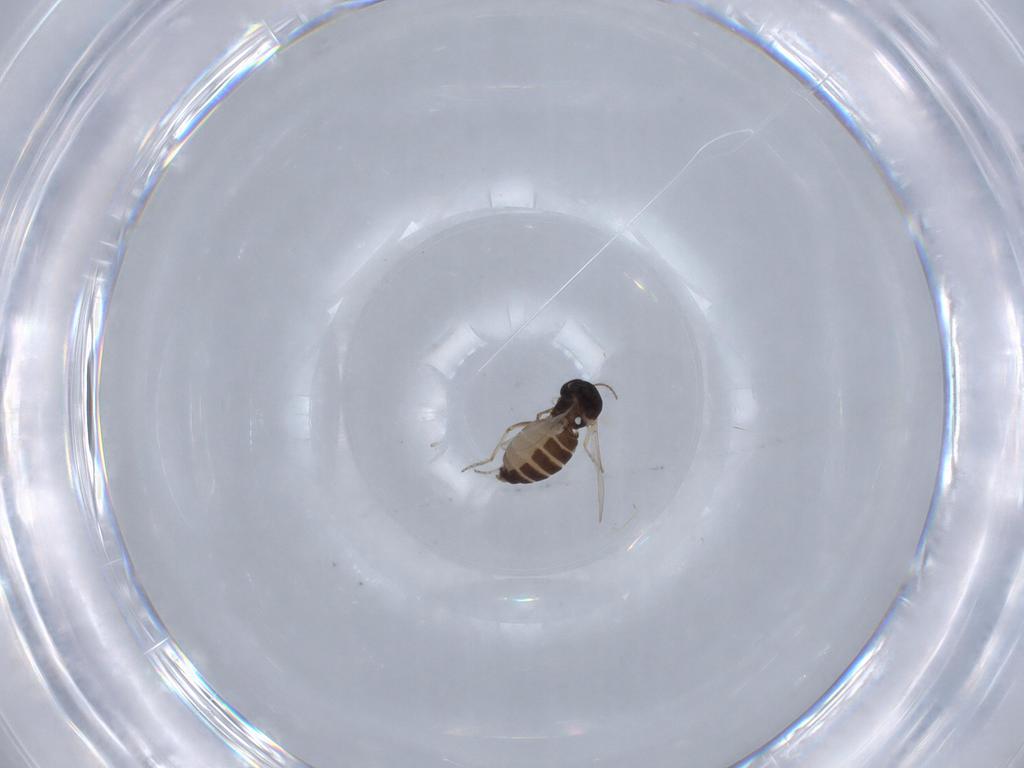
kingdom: Animalia
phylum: Arthropoda
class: Insecta
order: Diptera
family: Ceratopogonidae
